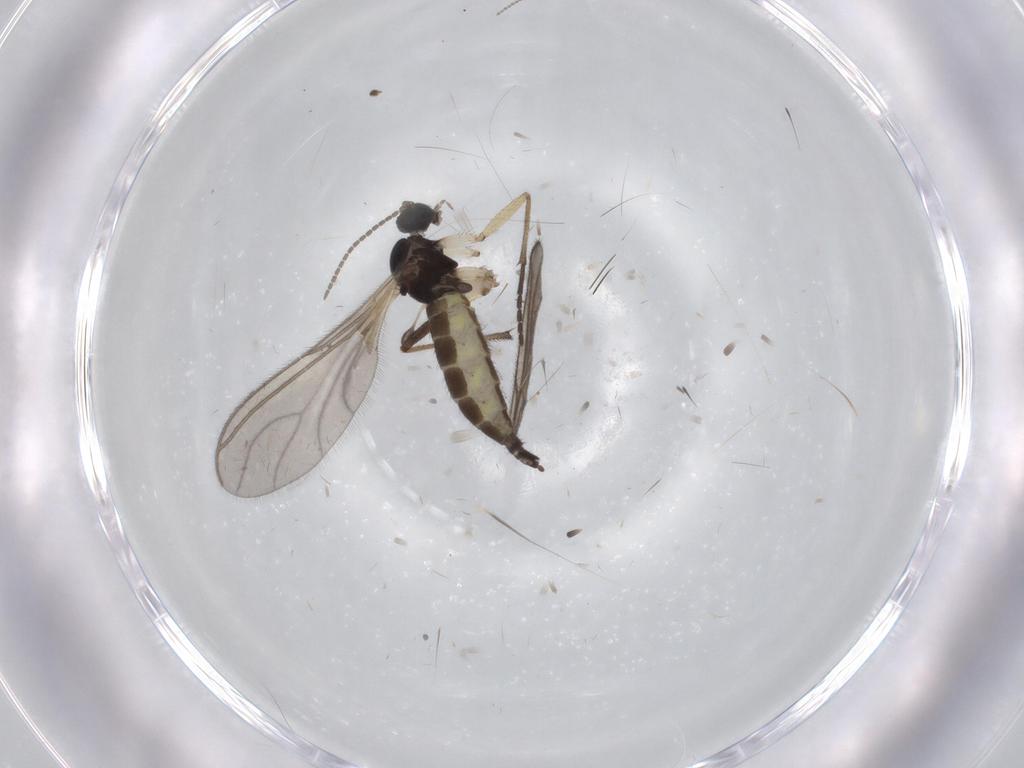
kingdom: Animalia
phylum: Arthropoda
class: Insecta
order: Diptera
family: Sciaridae
